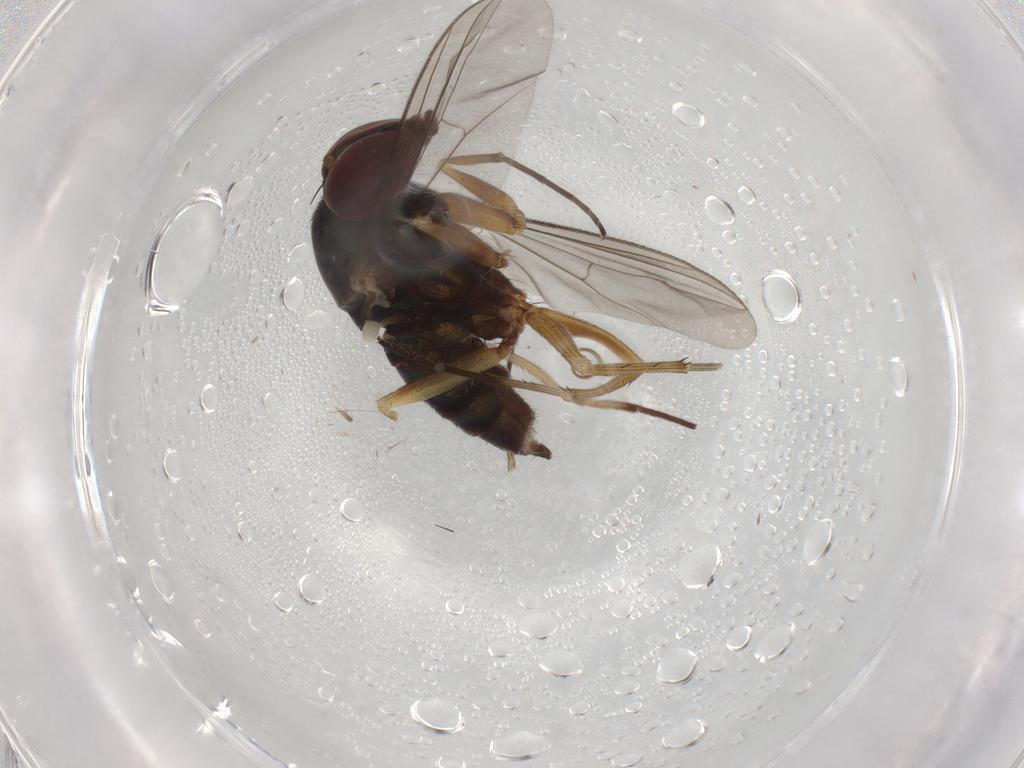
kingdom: Animalia
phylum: Arthropoda
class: Insecta
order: Diptera
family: Dolichopodidae
